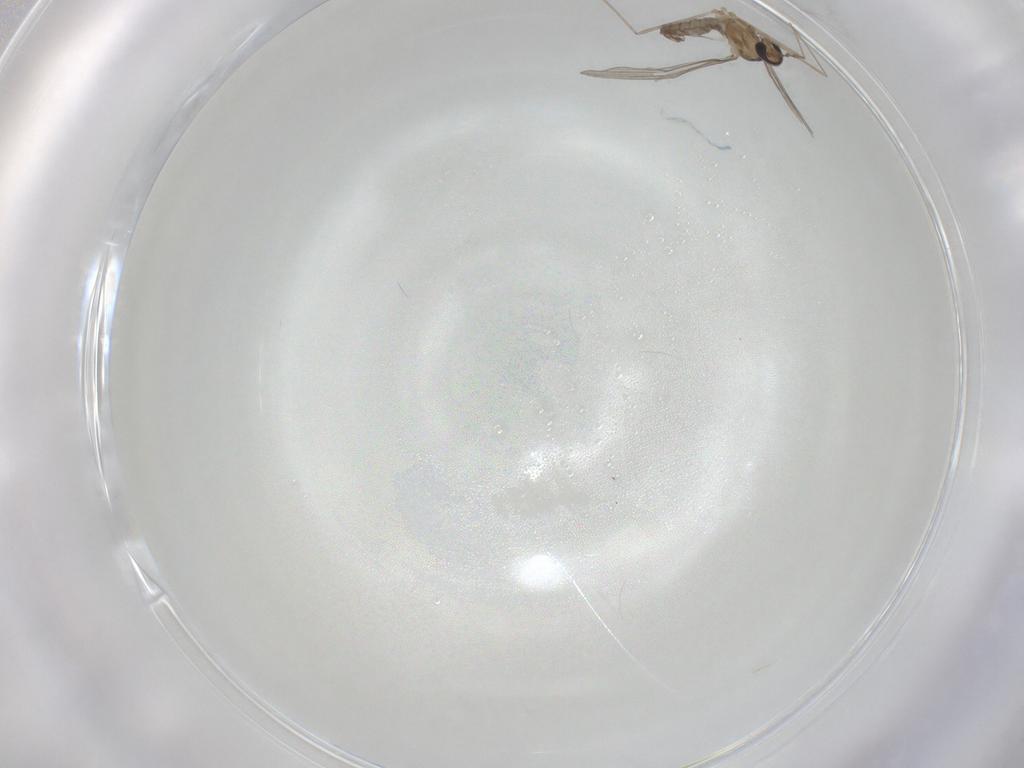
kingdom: Animalia
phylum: Arthropoda
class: Insecta
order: Diptera
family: Cecidomyiidae
